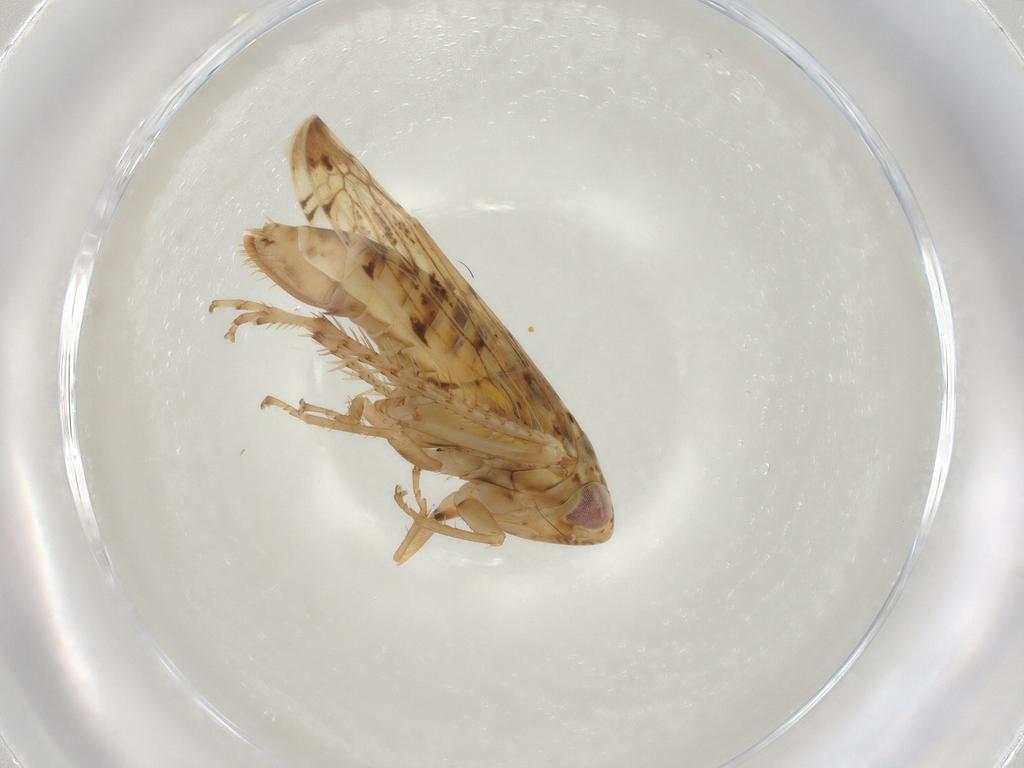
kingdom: Animalia
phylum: Arthropoda
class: Insecta
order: Hemiptera
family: Cicadellidae
